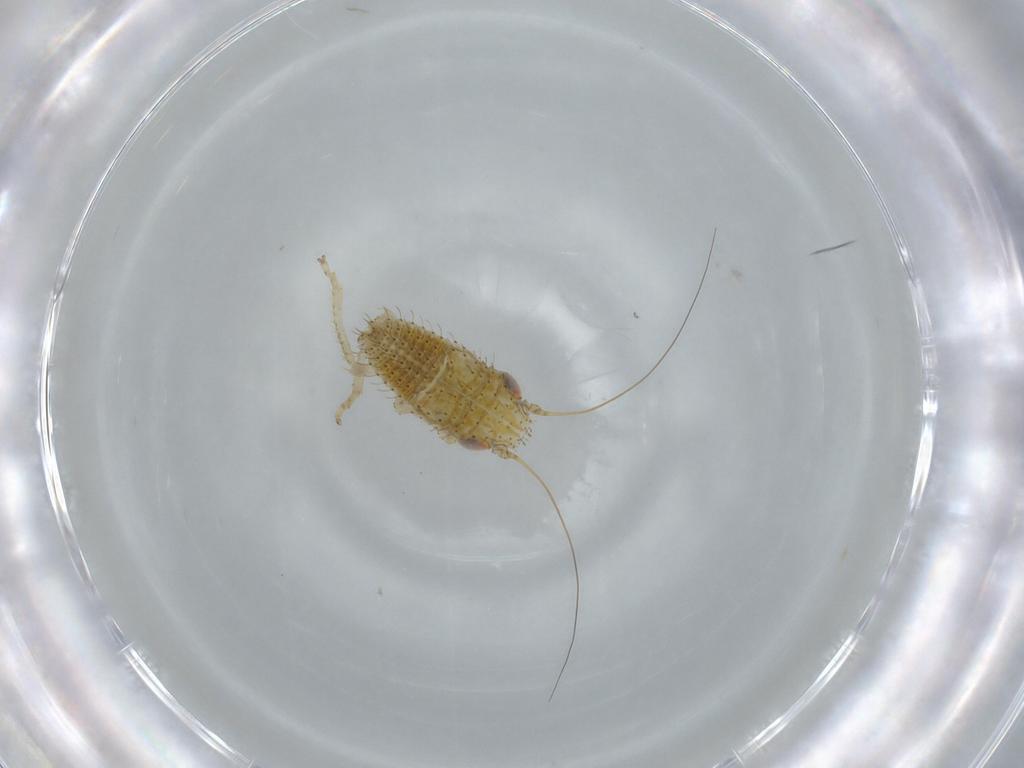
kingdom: Animalia
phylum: Arthropoda
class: Insecta
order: Hemiptera
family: Cicadellidae
